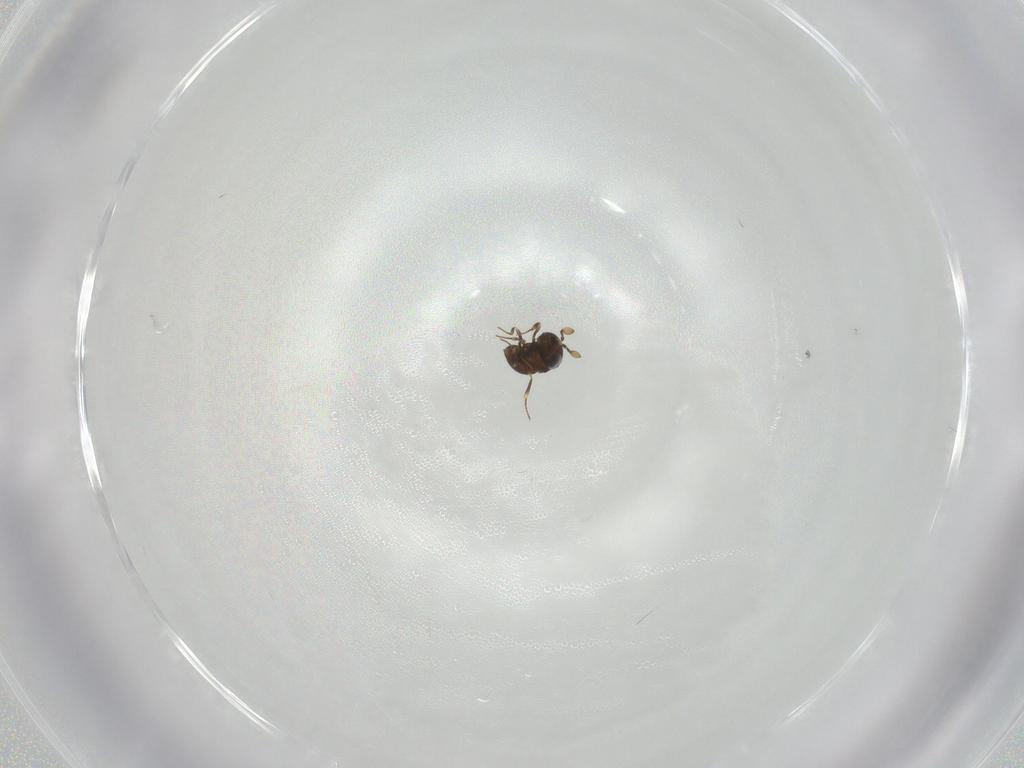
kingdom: Animalia
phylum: Arthropoda
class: Insecta
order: Hymenoptera
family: Scelionidae
